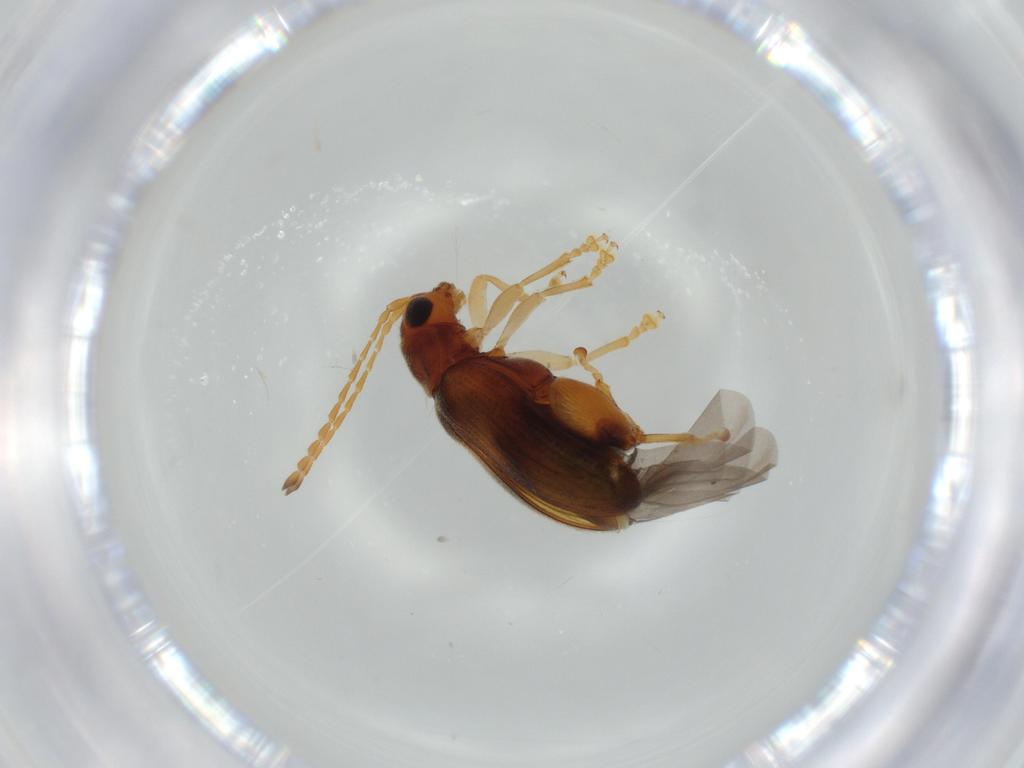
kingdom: Animalia
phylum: Arthropoda
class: Insecta
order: Coleoptera
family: Chrysomelidae
